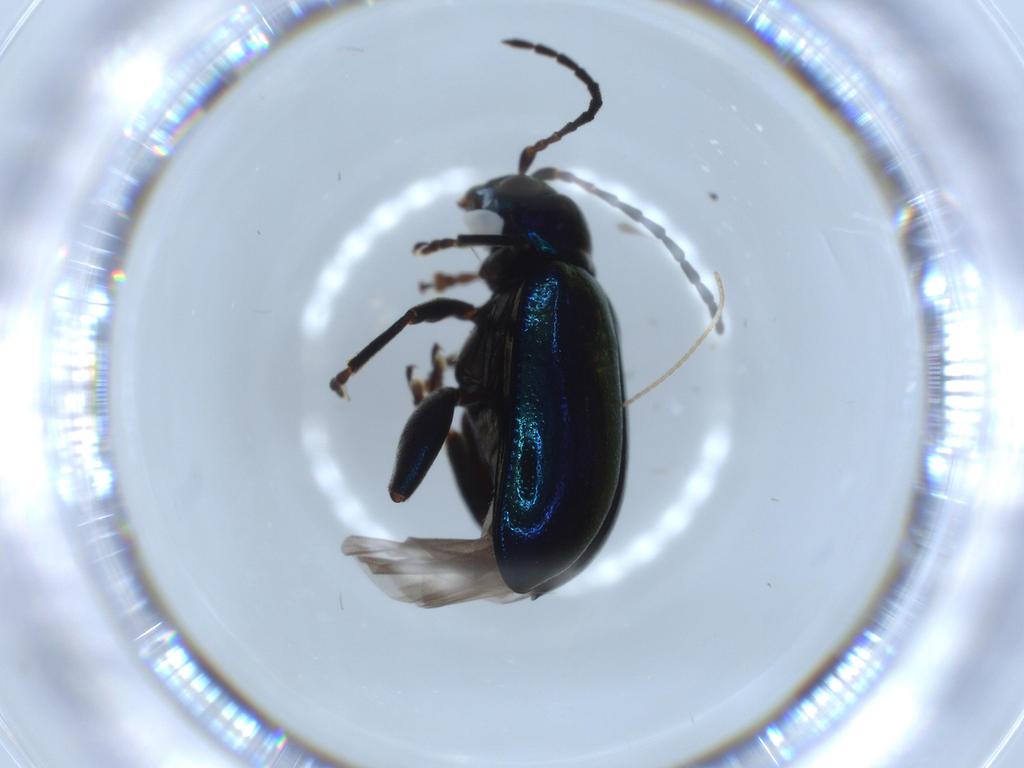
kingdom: Animalia
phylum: Arthropoda
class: Insecta
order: Coleoptera
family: Chrysomelidae
